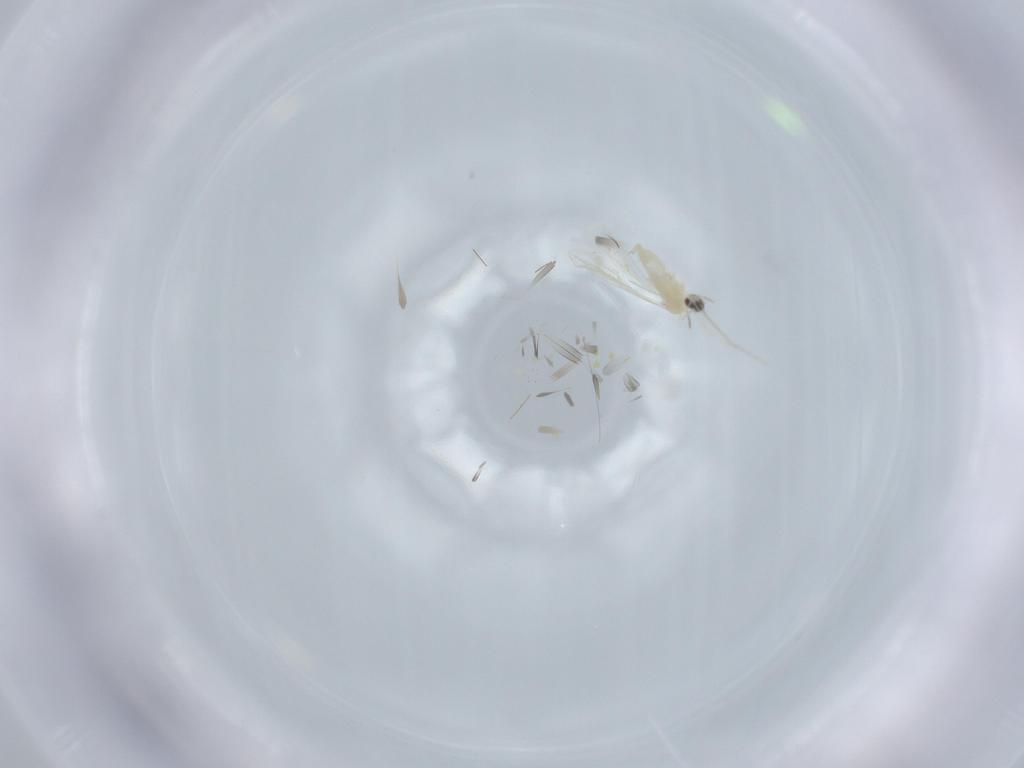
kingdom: Animalia
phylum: Arthropoda
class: Insecta
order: Diptera
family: Cecidomyiidae
